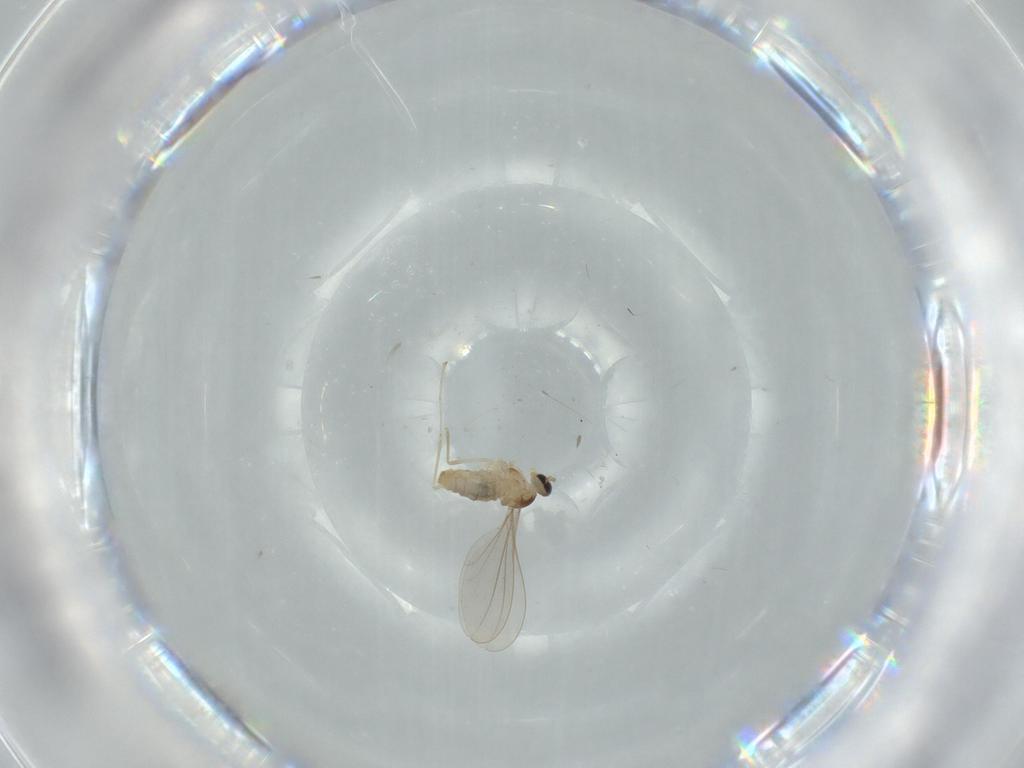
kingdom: Animalia
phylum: Arthropoda
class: Insecta
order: Diptera
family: Cecidomyiidae
